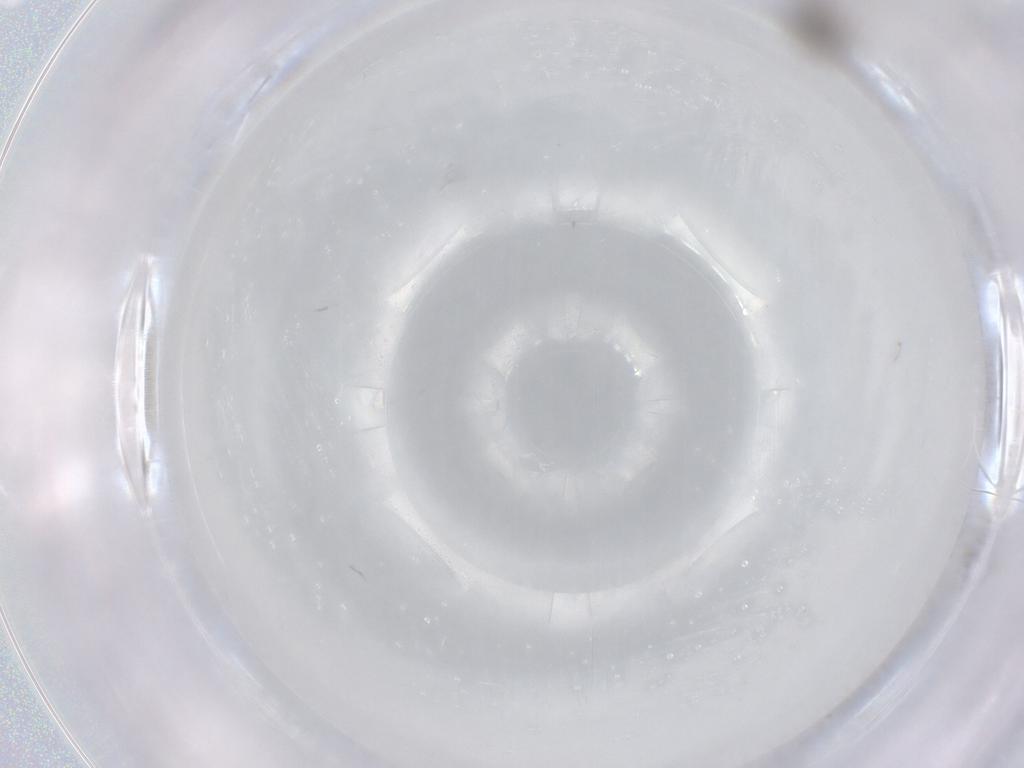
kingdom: Animalia
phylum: Arthropoda
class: Insecta
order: Diptera
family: Cecidomyiidae
